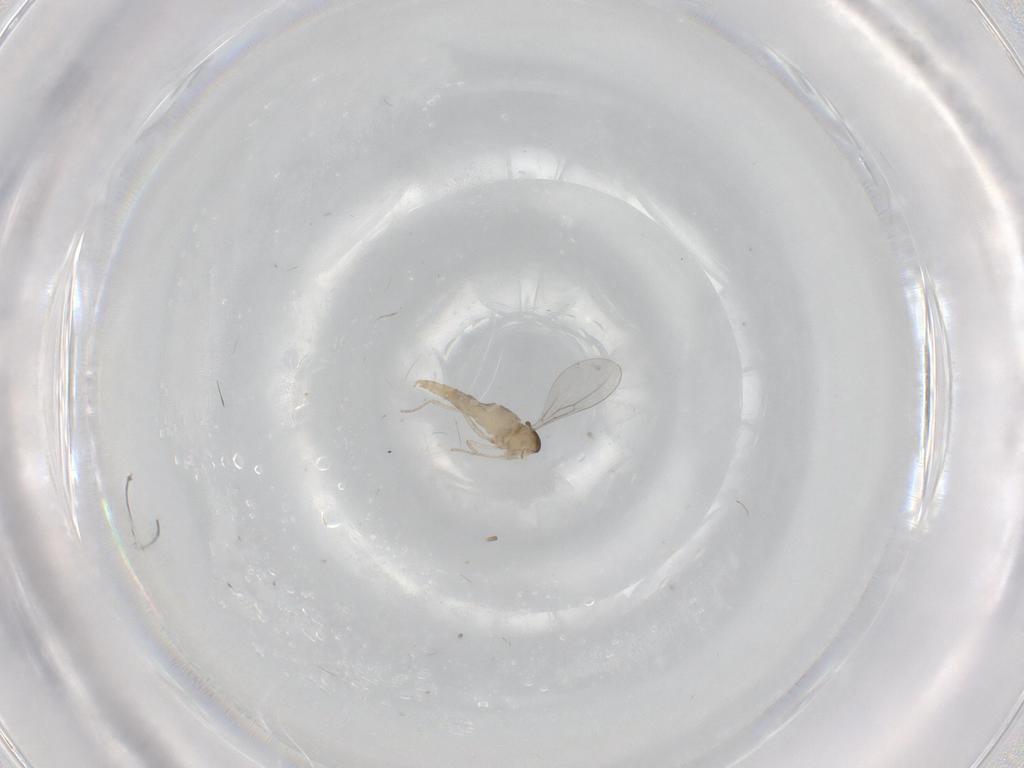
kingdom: Animalia
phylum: Arthropoda
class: Insecta
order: Diptera
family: Cecidomyiidae
